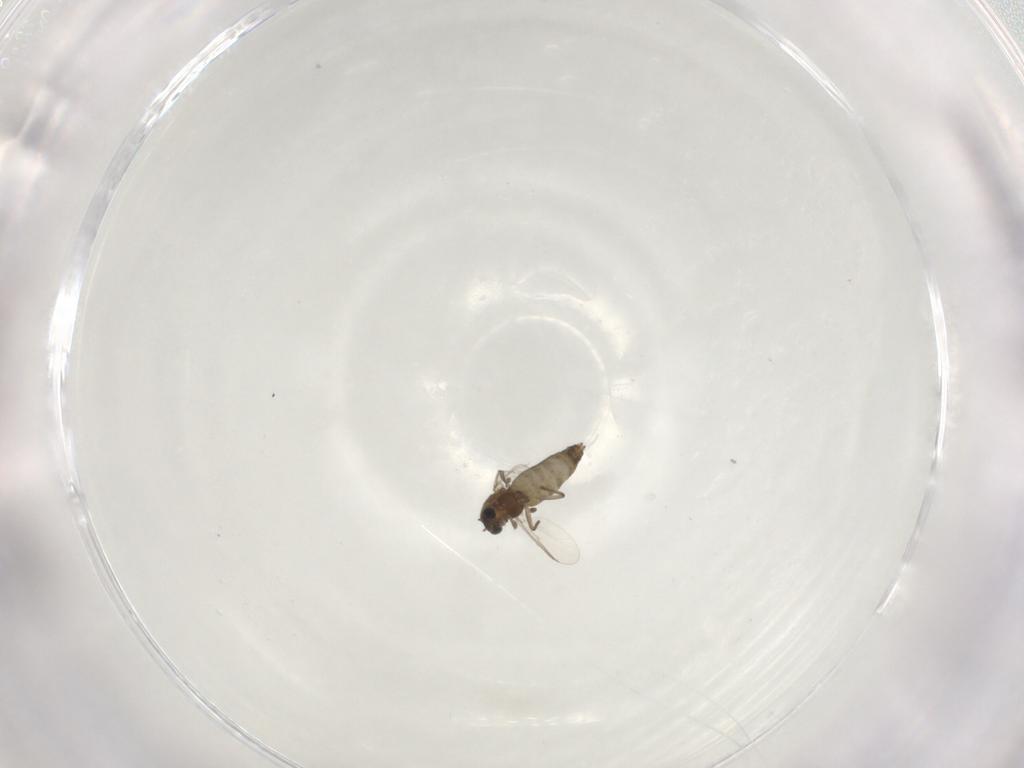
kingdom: Animalia
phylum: Arthropoda
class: Insecta
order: Diptera
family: Chironomidae
